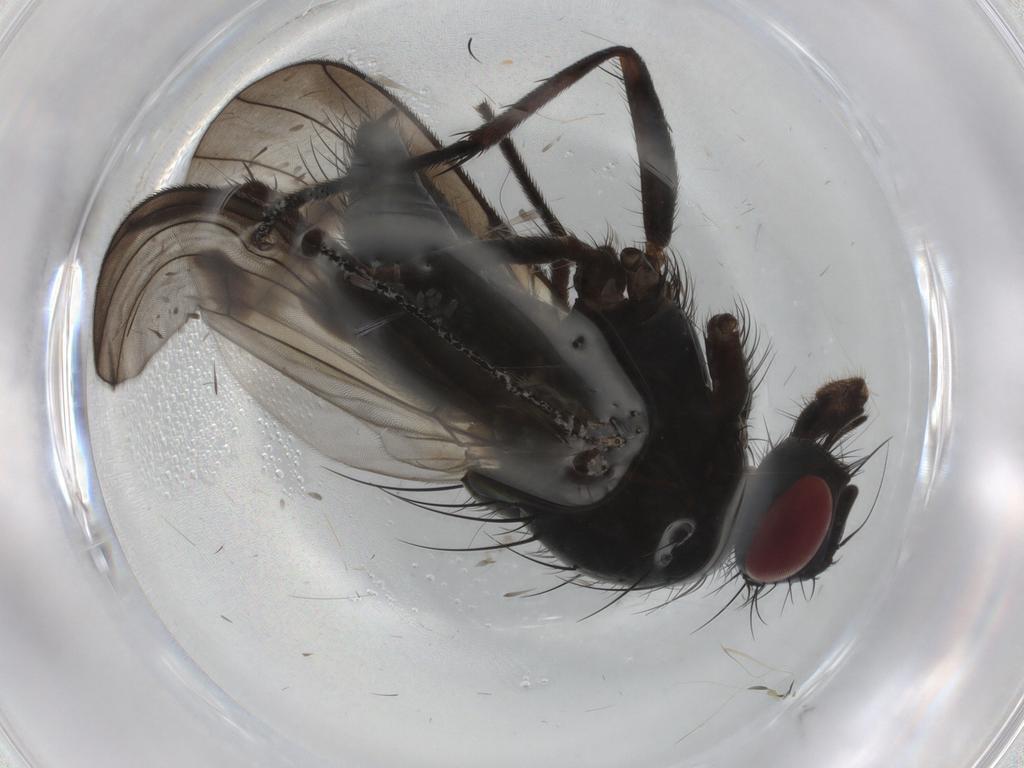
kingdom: Animalia
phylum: Arthropoda
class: Insecta
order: Diptera
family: Muscidae
